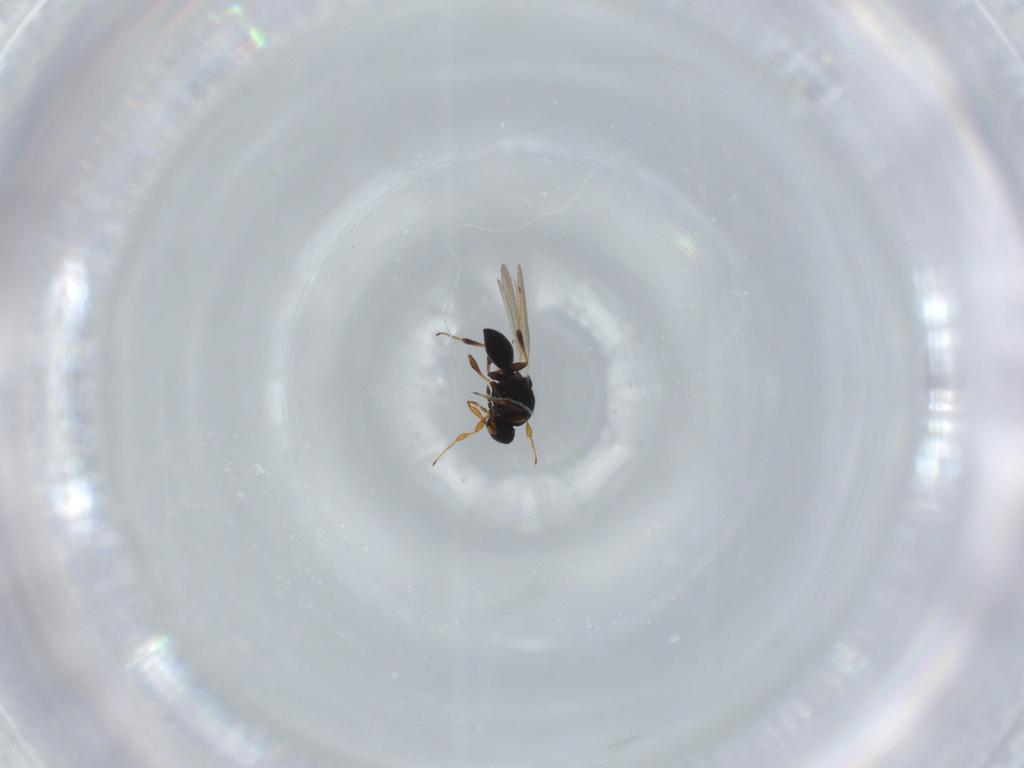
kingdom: Animalia
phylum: Arthropoda
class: Insecta
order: Hymenoptera
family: Platygastridae
